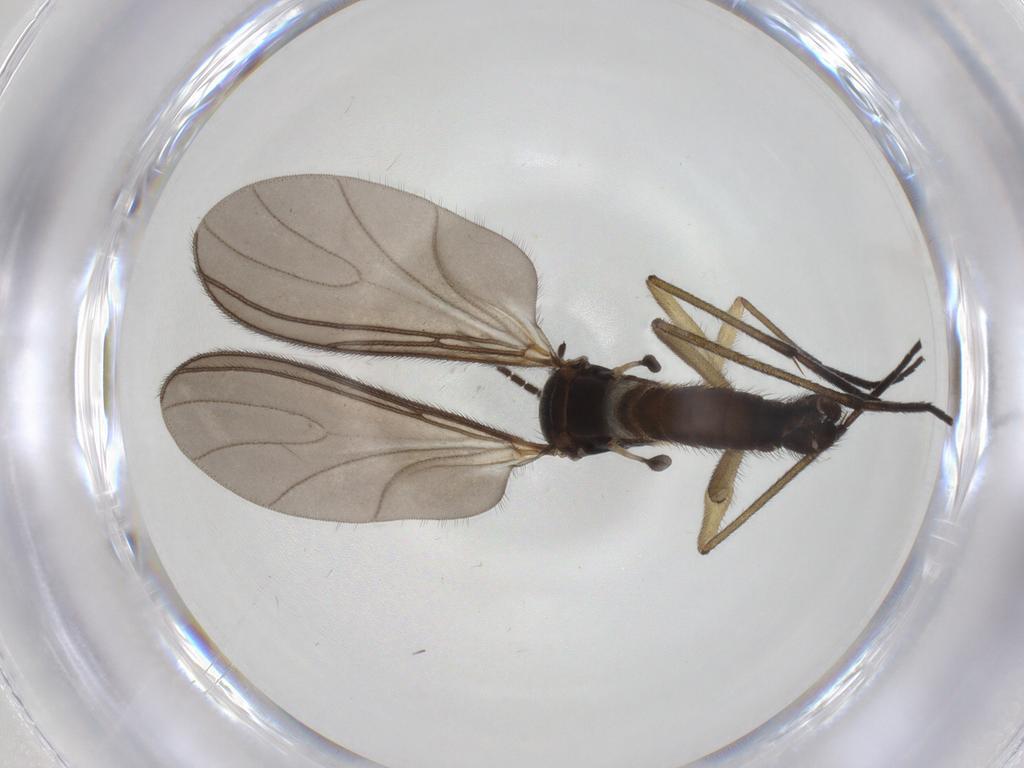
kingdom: Animalia
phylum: Arthropoda
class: Insecta
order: Diptera
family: Sciaridae
